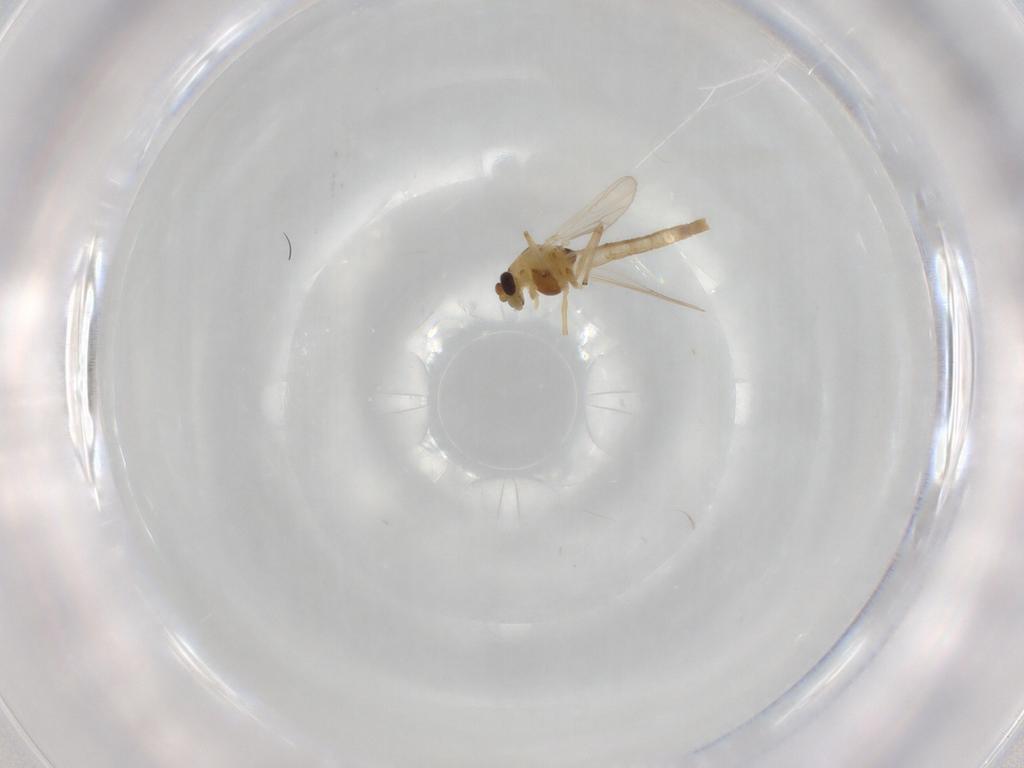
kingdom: Animalia
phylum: Arthropoda
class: Insecta
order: Diptera
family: Chironomidae
